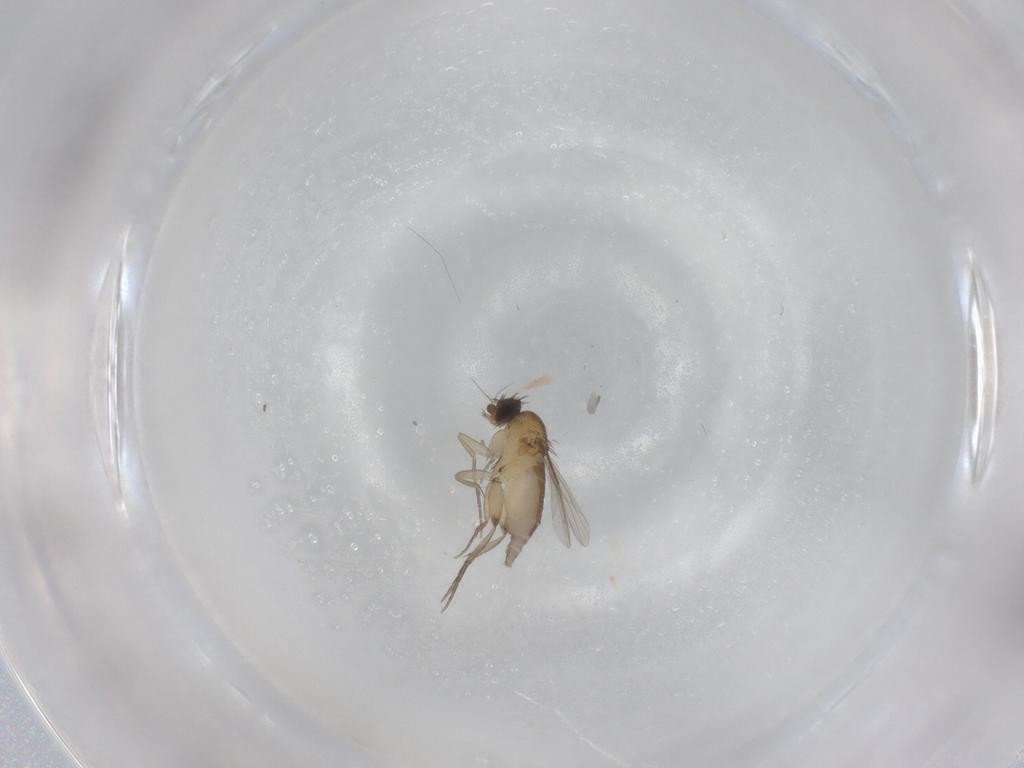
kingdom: Animalia
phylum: Arthropoda
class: Insecta
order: Diptera
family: Phoridae
